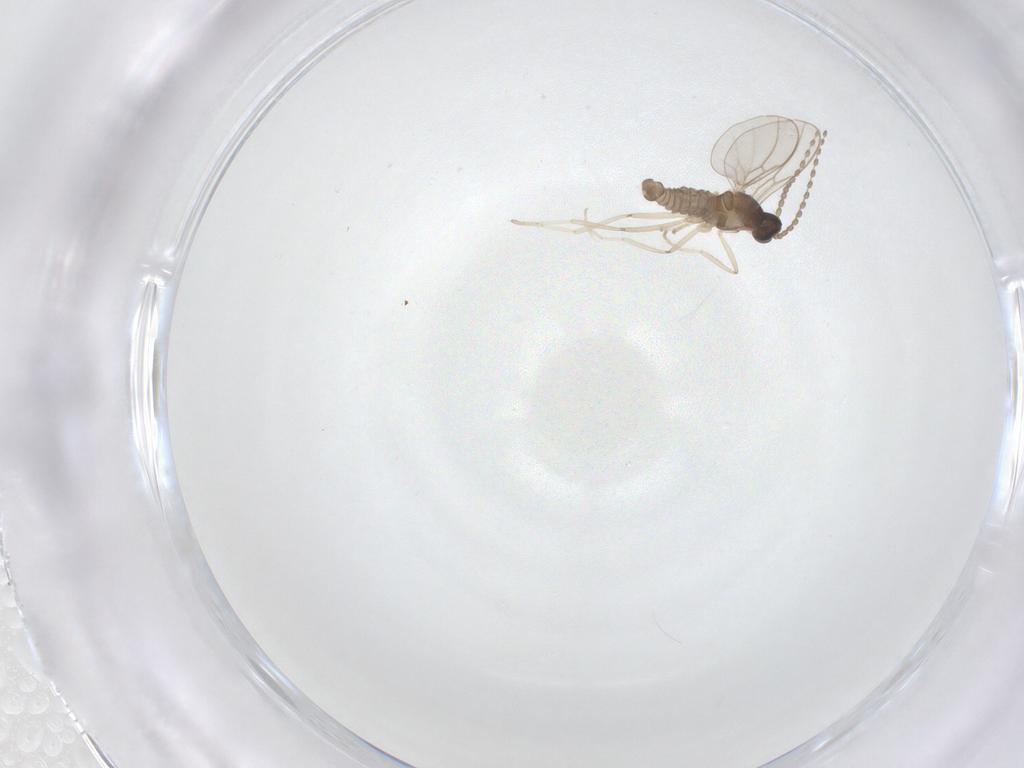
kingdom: Animalia
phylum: Arthropoda
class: Insecta
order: Diptera
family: Cecidomyiidae
